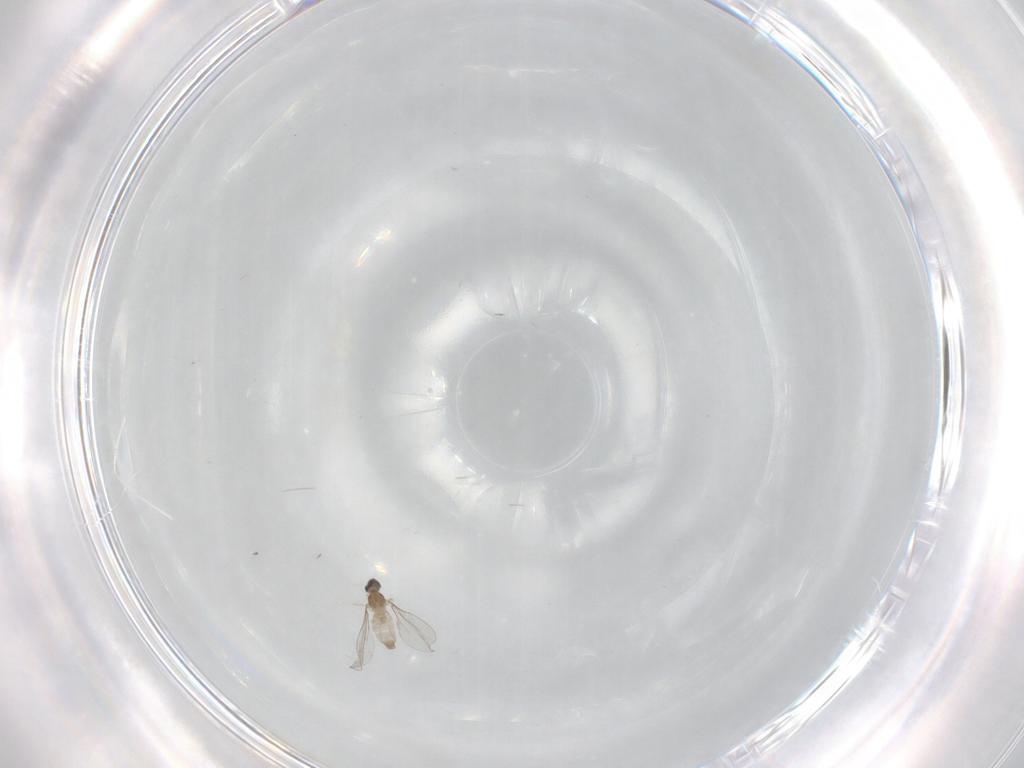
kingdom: Animalia
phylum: Arthropoda
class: Insecta
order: Diptera
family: Cecidomyiidae
